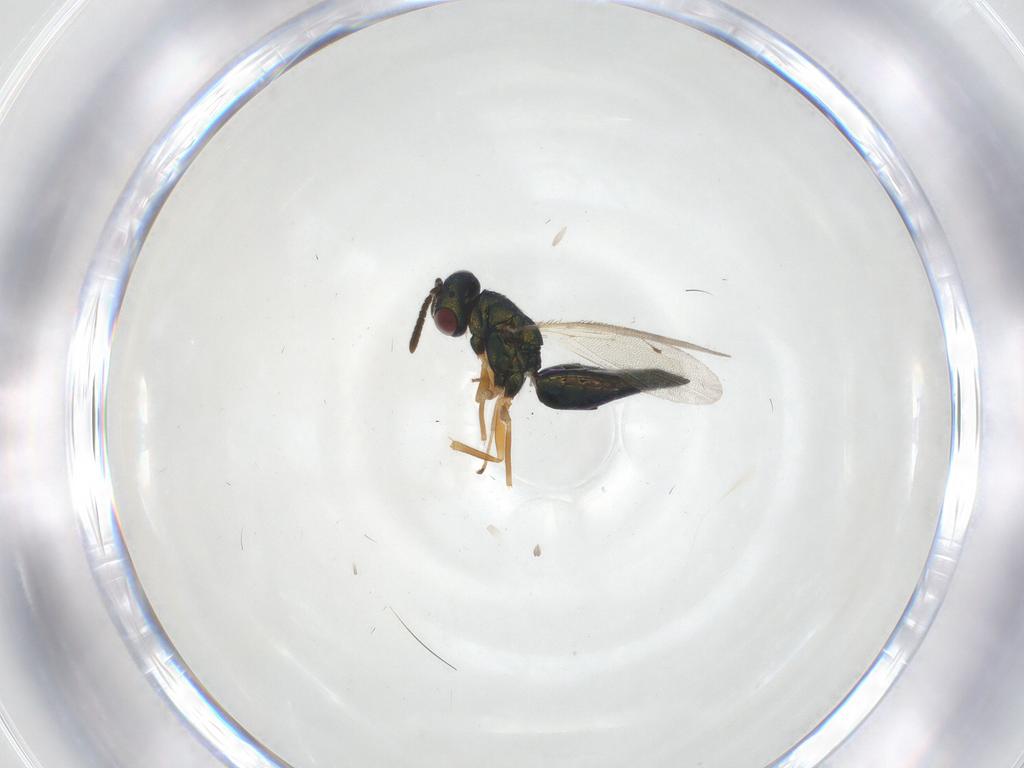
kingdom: Animalia
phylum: Arthropoda
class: Insecta
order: Hymenoptera
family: Pteromalidae
